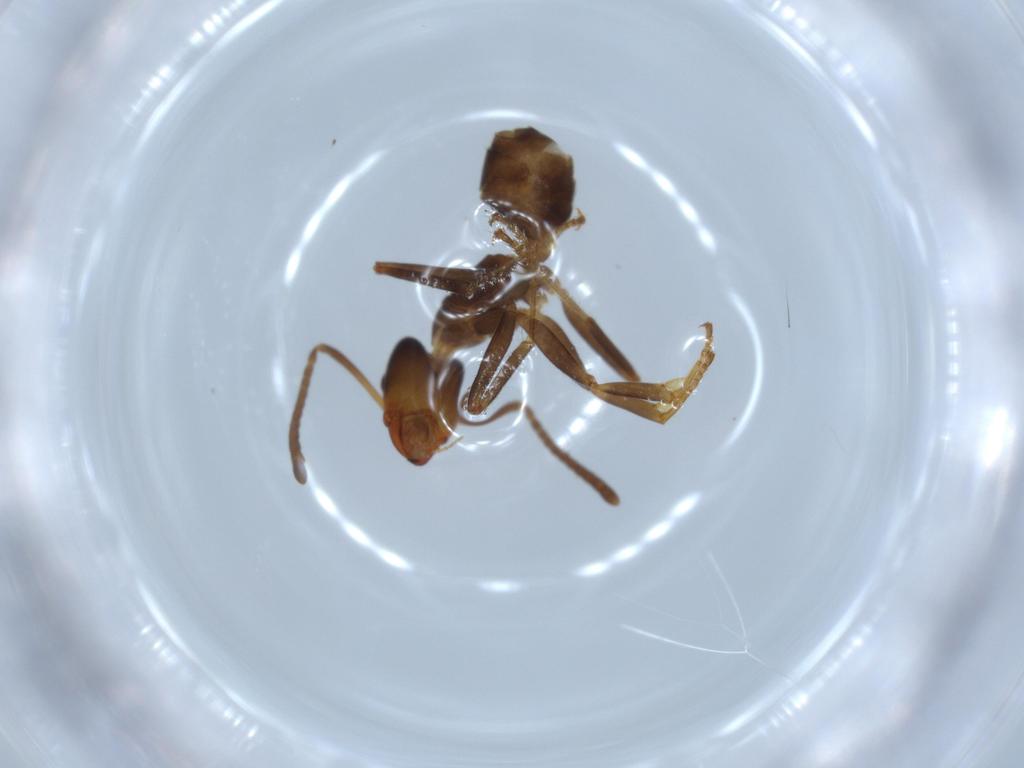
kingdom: Animalia
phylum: Arthropoda
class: Insecta
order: Hymenoptera
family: Formicidae
